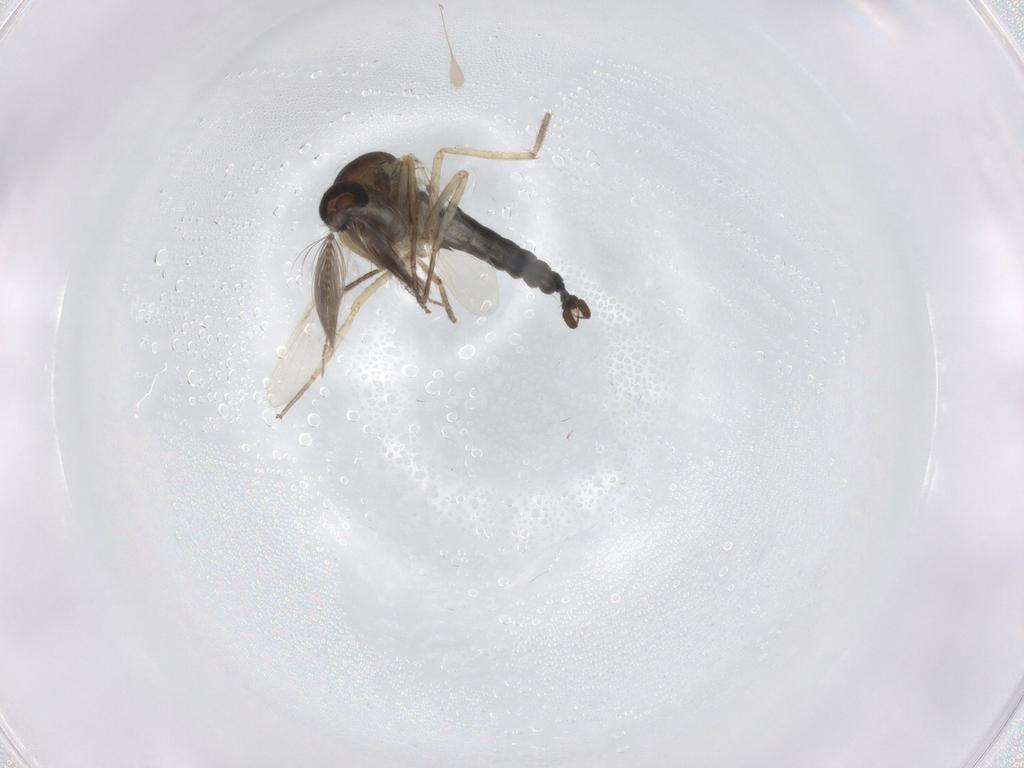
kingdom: Animalia
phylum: Arthropoda
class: Insecta
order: Diptera
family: Ceratopogonidae
